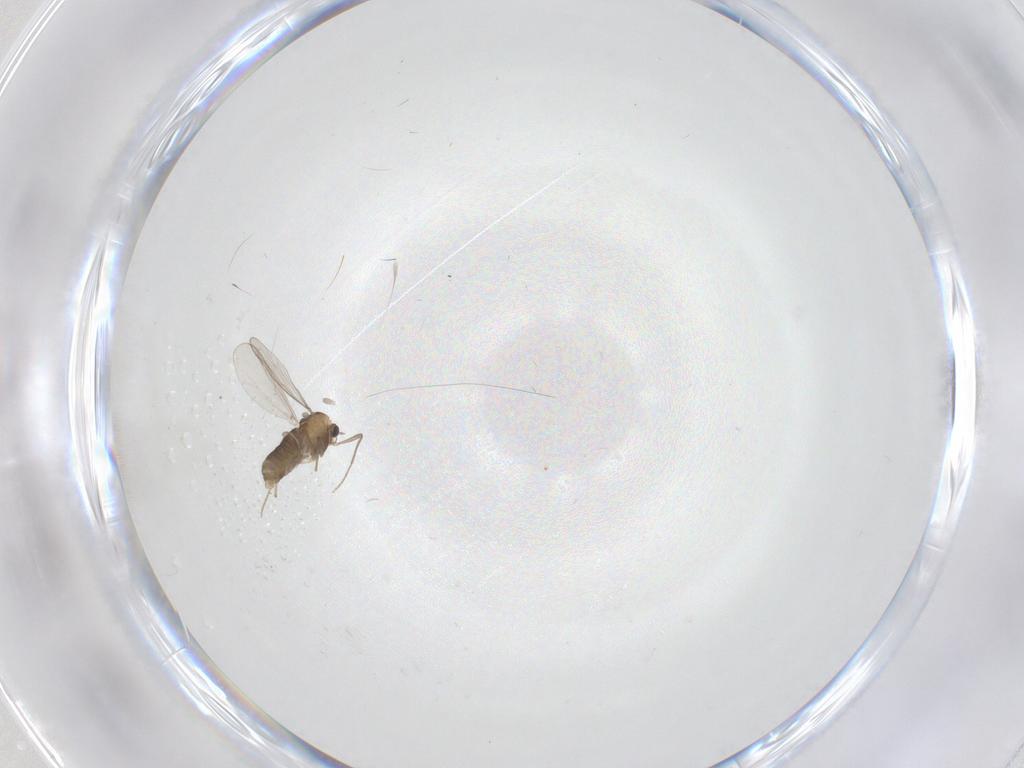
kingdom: Animalia
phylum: Arthropoda
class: Insecta
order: Diptera
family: Chironomidae
